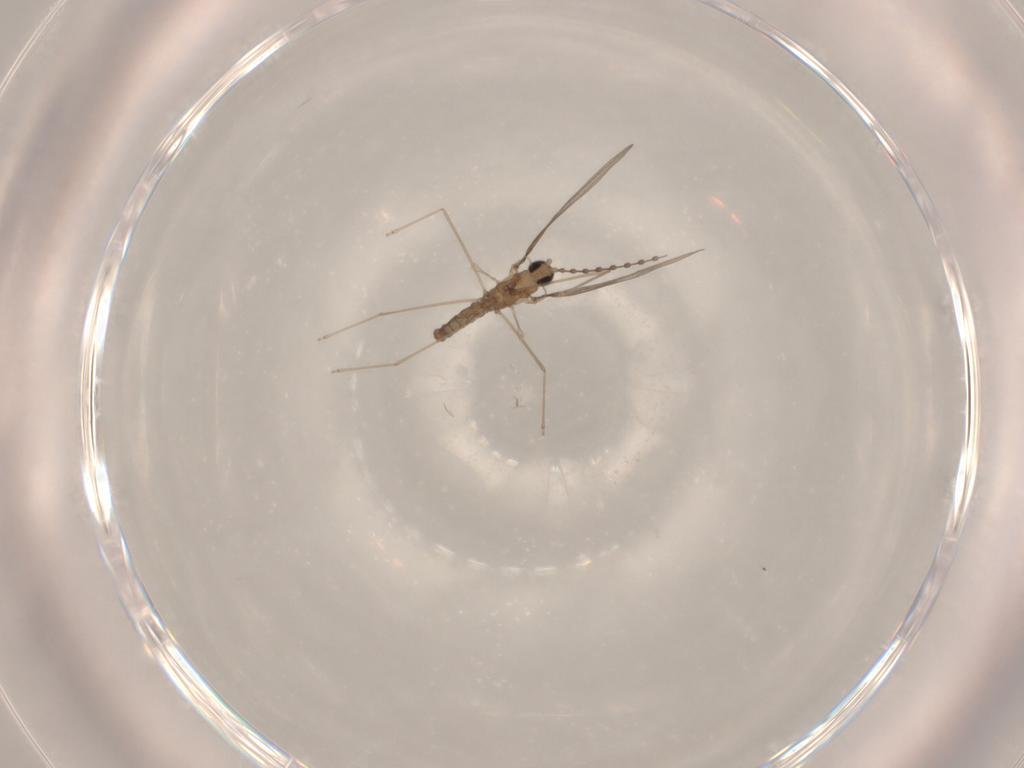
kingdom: Animalia
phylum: Arthropoda
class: Insecta
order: Diptera
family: Cecidomyiidae
